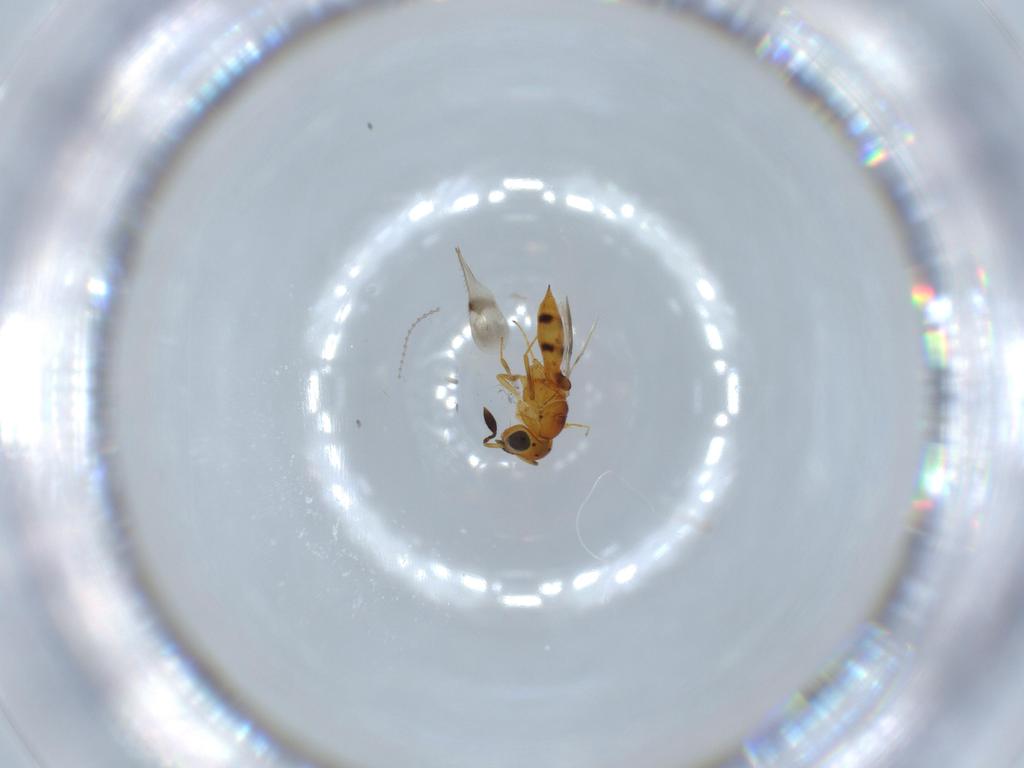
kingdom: Animalia
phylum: Arthropoda
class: Insecta
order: Hymenoptera
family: Scelionidae
